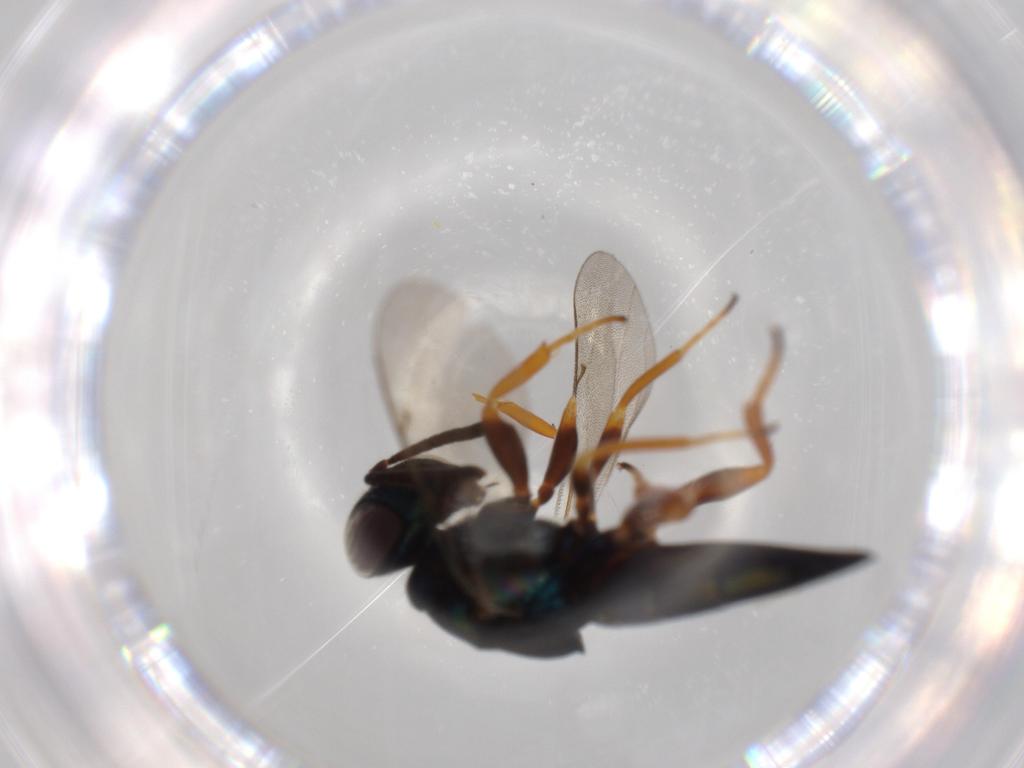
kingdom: Animalia
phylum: Arthropoda
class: Insecta
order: Hymenoptera
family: Lyciscidae
